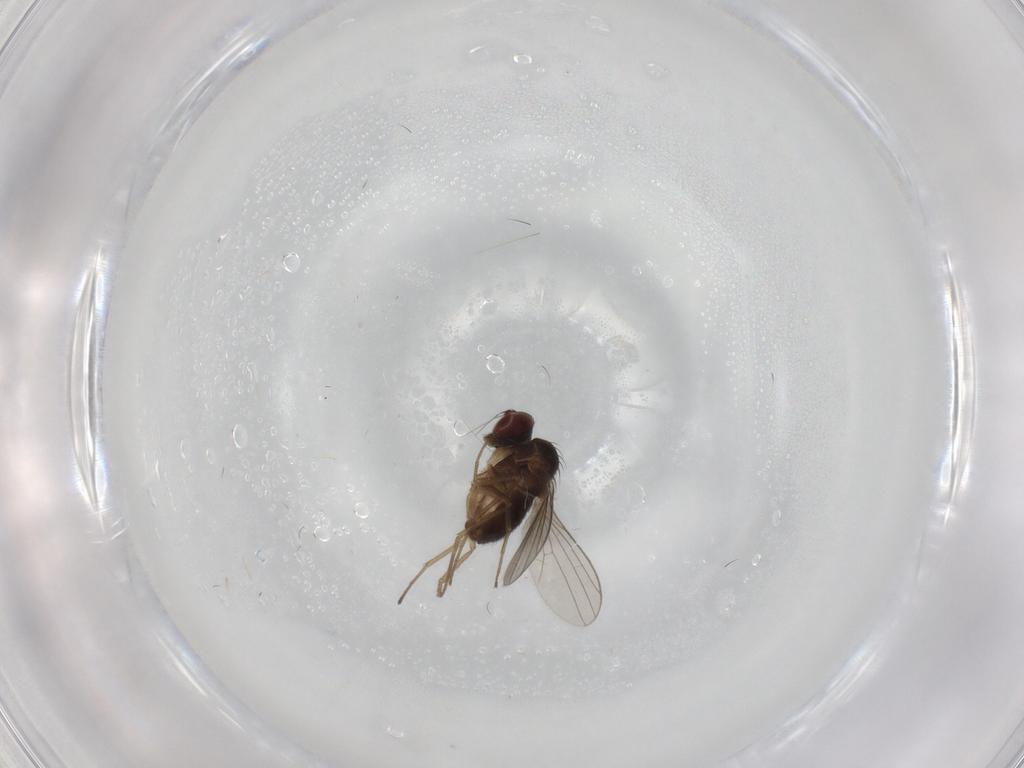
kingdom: Animalia
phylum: Arthropoda
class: Insecta
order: Diptera
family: Dolichopodidae
